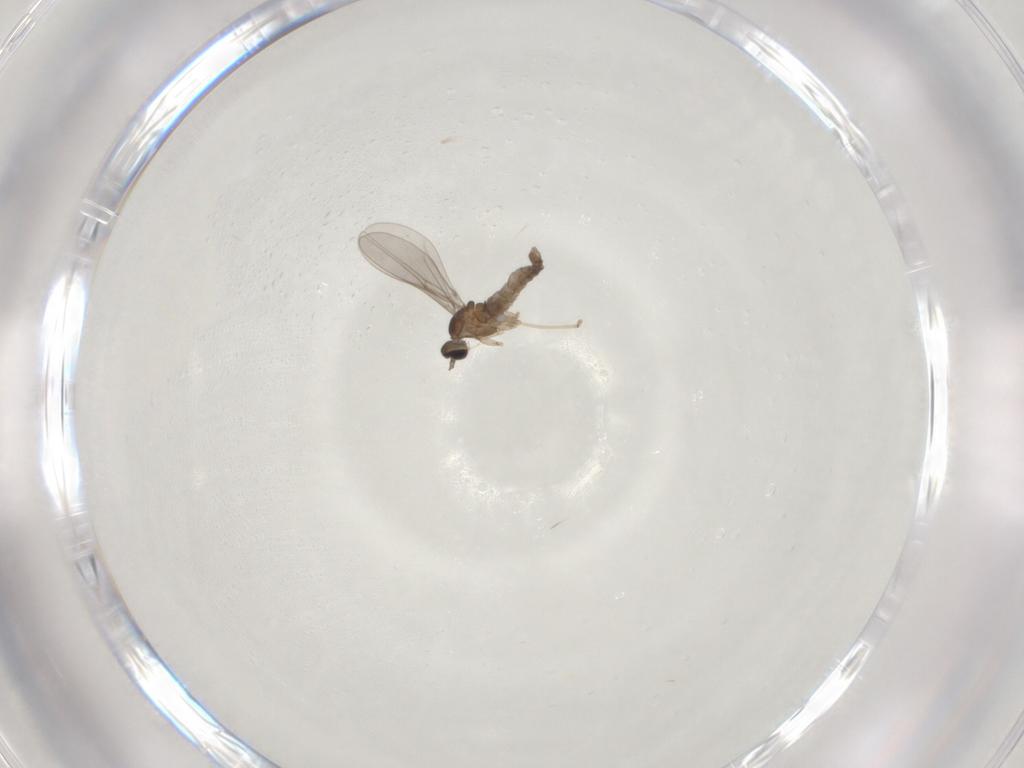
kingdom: Animalia
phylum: Arthropoda
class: Insecta
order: Diptera
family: Cecidomyiidae
